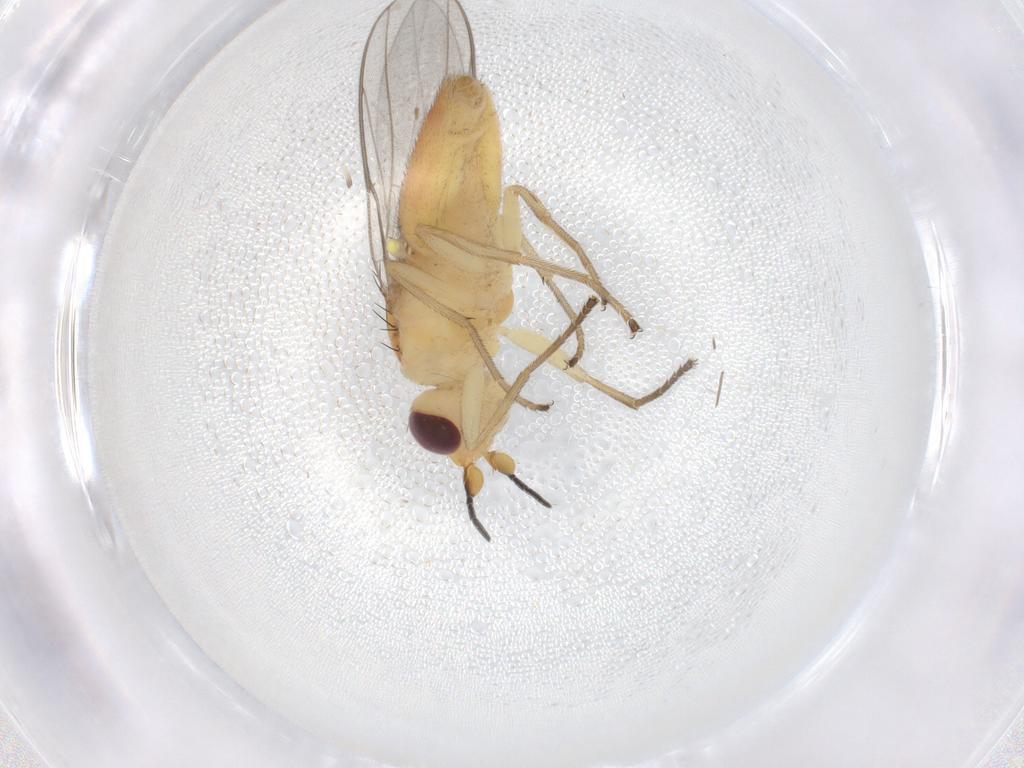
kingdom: Animalia
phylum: Arthropoda
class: Insecta
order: Diptera
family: Chloropidae
